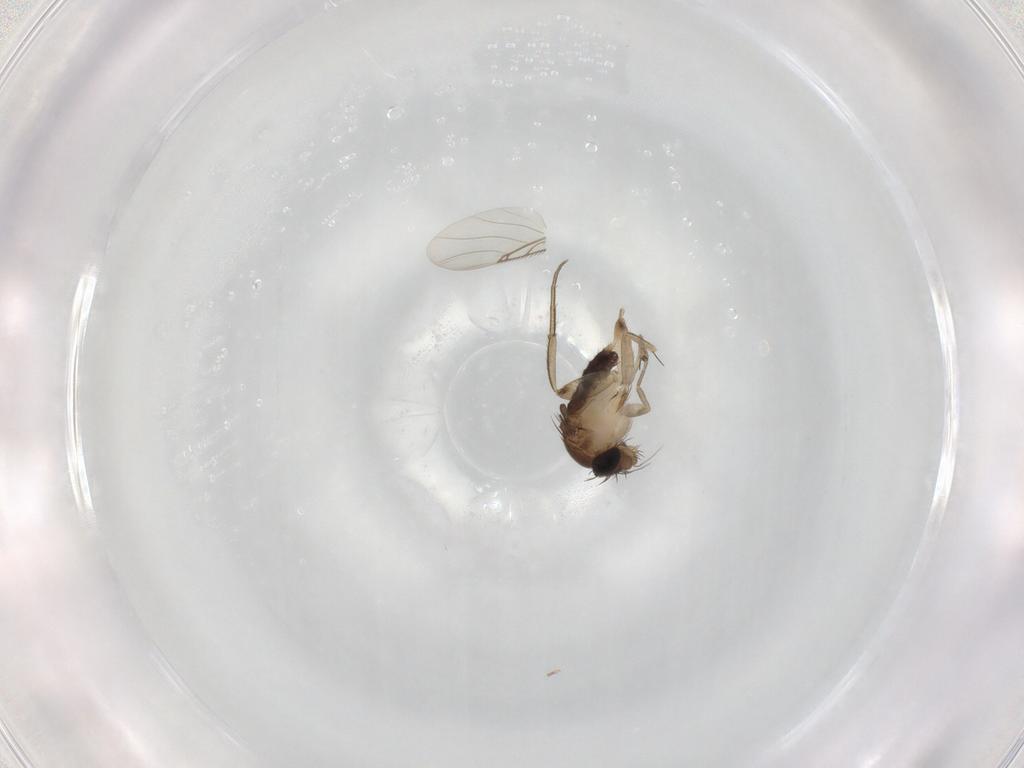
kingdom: Animalia
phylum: Arthropoda
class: Insecta
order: Diptera
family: Phoridae
